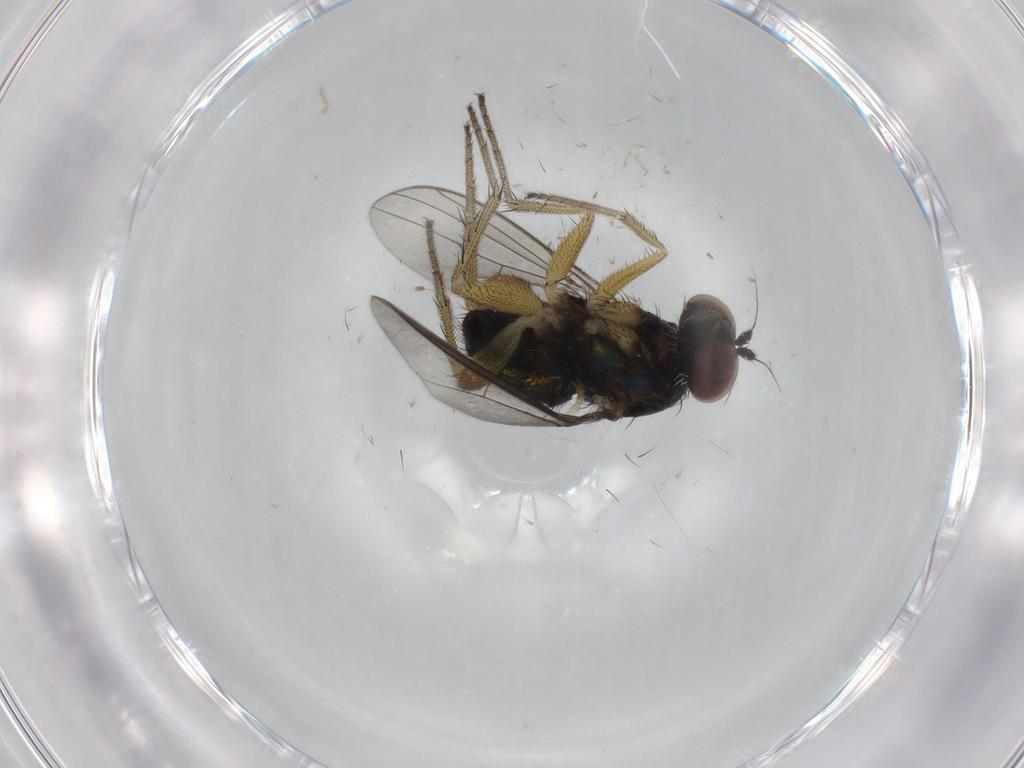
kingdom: Animalia
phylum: Arthropoda
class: Insecta
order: Diptera
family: Dolichopodidae
